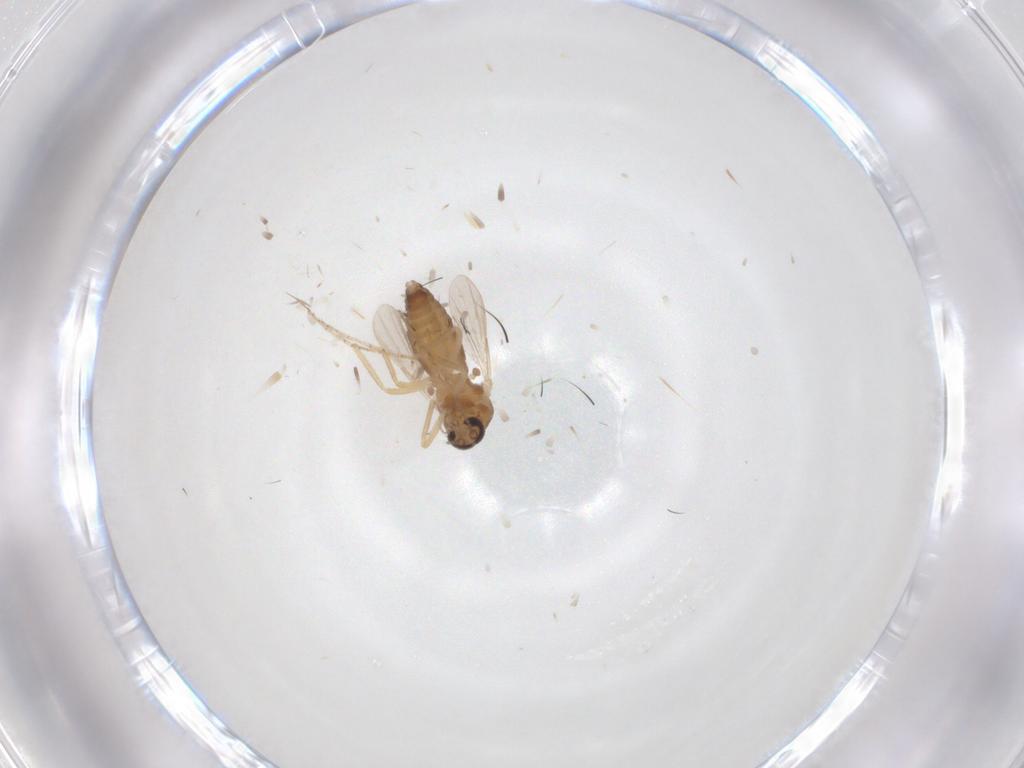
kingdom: Animalia
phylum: Arthropoda
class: Insecta
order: Diptera
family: Ceratopogonidae
